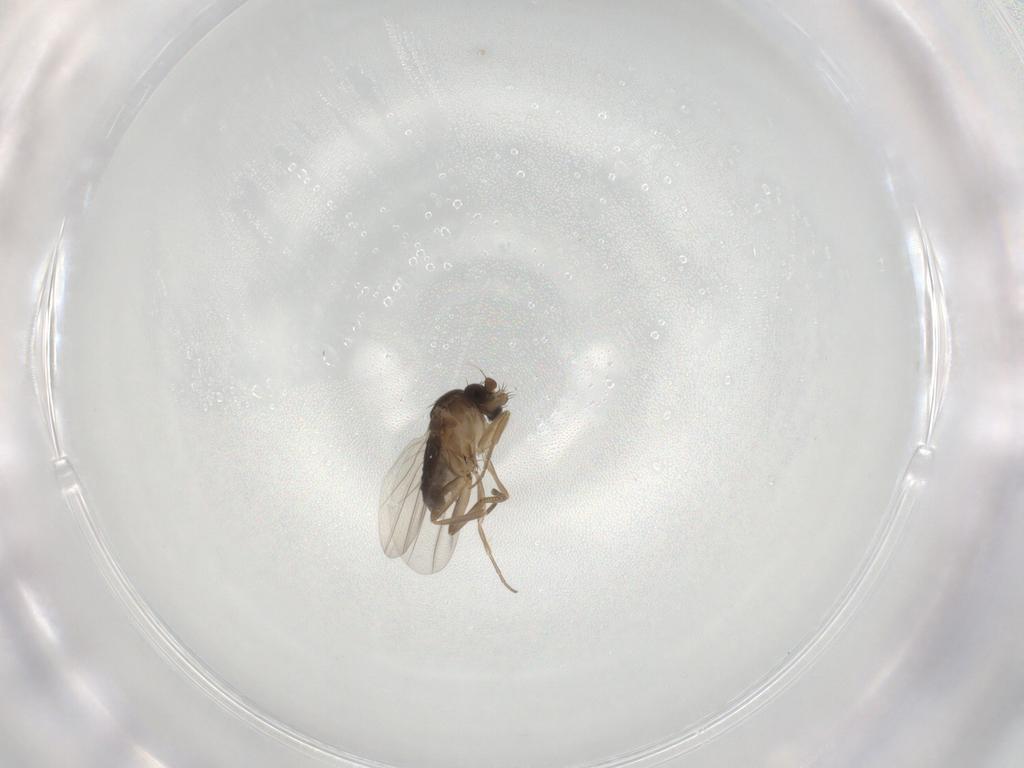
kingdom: Animalia
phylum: Arthropoda
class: Insecta
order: Diptera
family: Phoridae
